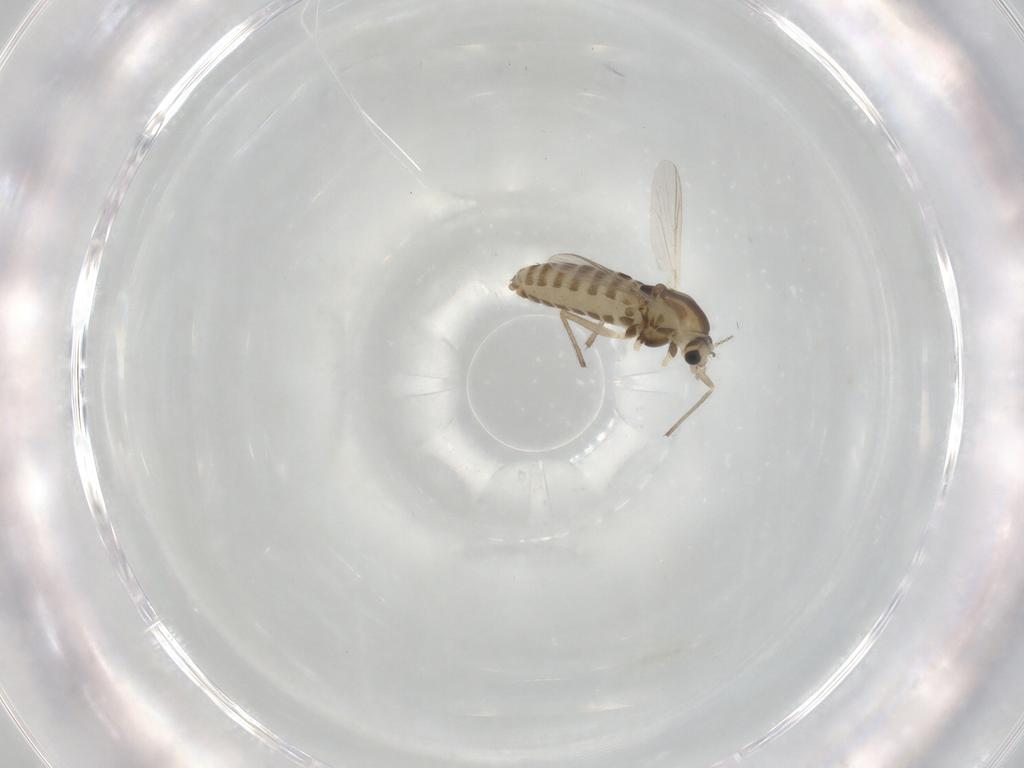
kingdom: Animalia
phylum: Arthropoda
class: Insecta
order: Diptera
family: Chironomidae
